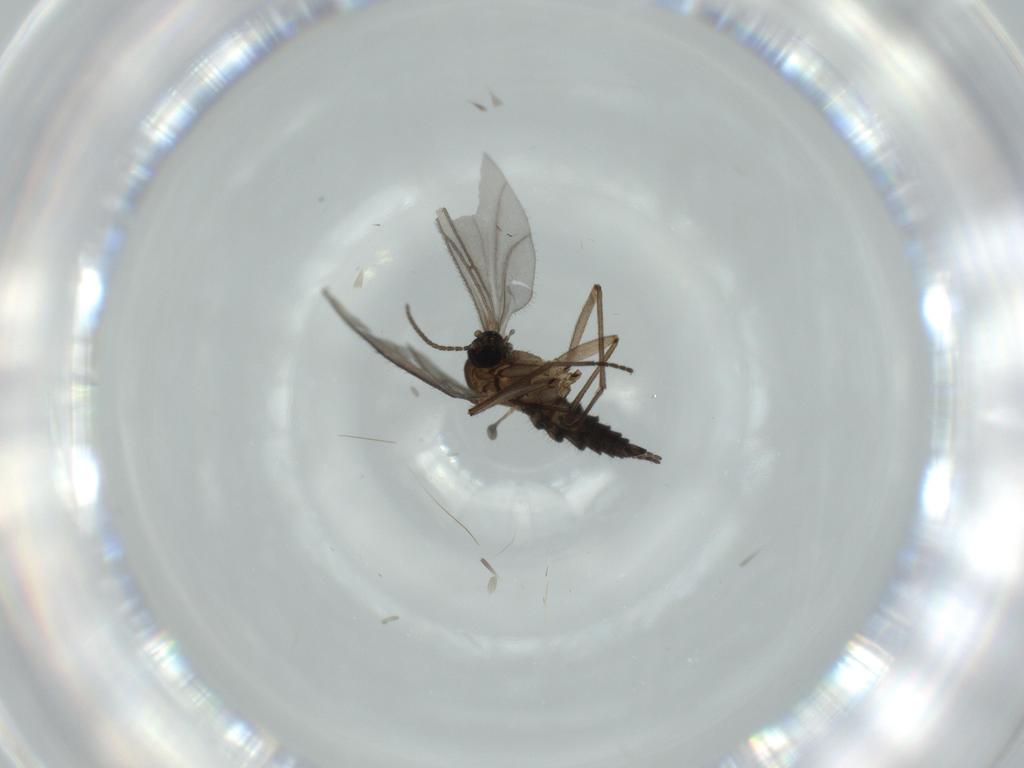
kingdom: Animalia
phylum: Arthropoda
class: Insecta
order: Diptera
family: Sciaridae
